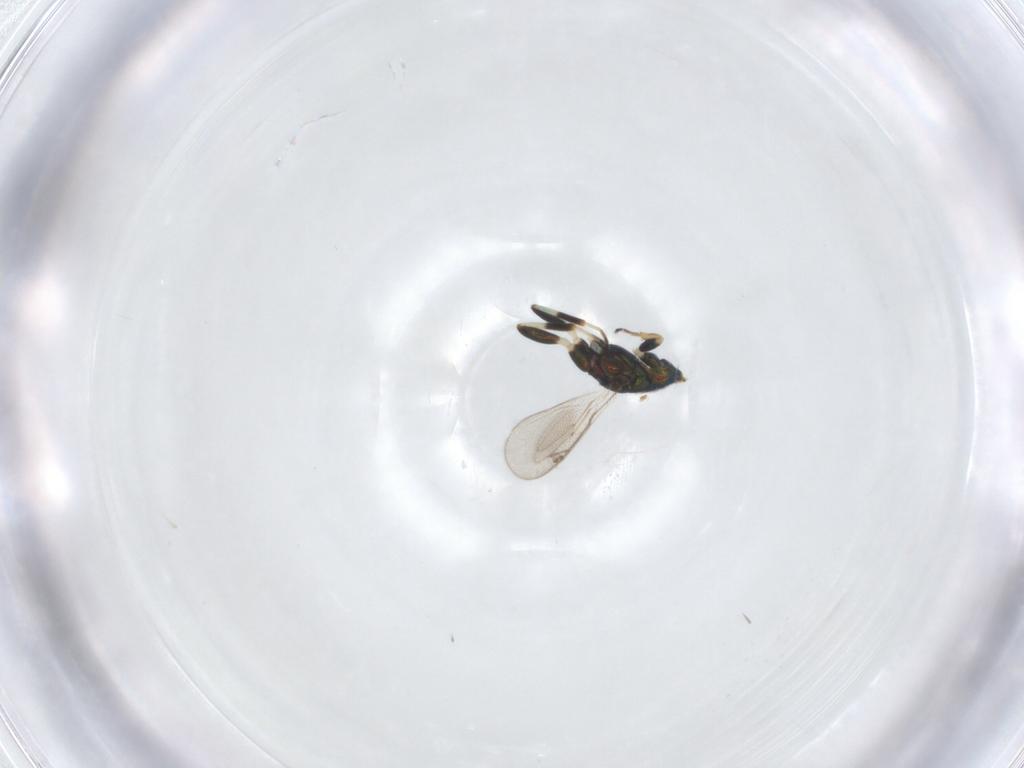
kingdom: Animalia
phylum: Arthropoda
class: Insecta
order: Hymenoptera
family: Eupelmidae
